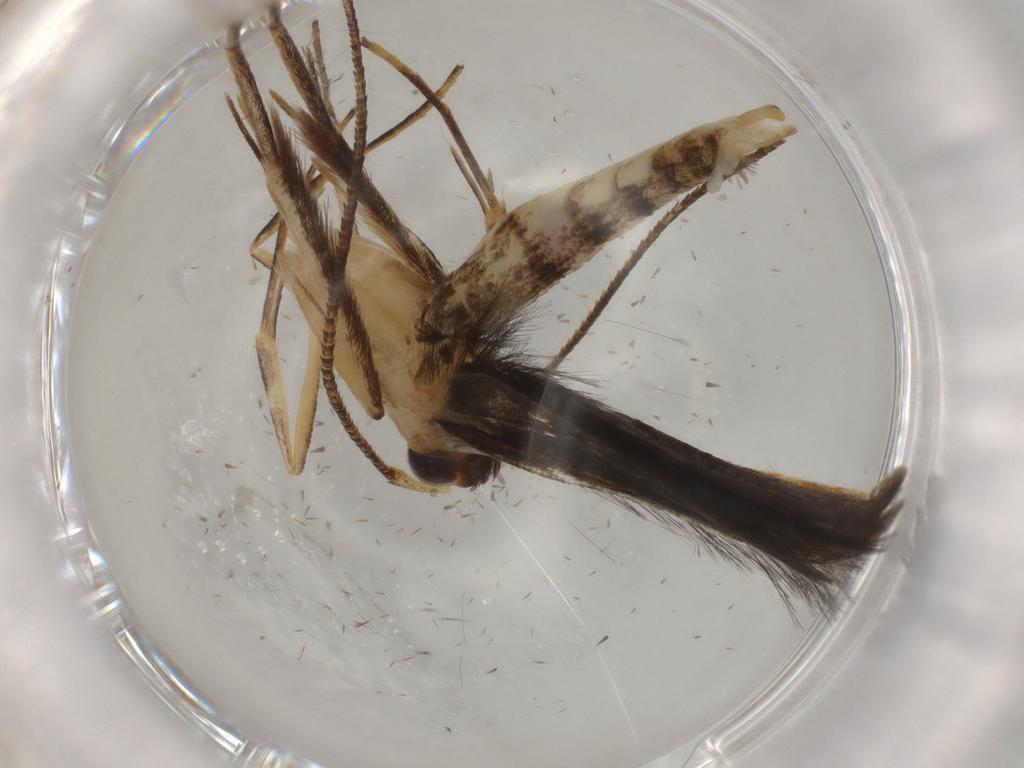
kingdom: Animalia
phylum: Arthropoda
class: Insecta
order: Lepidoptera
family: Gracillariidae
